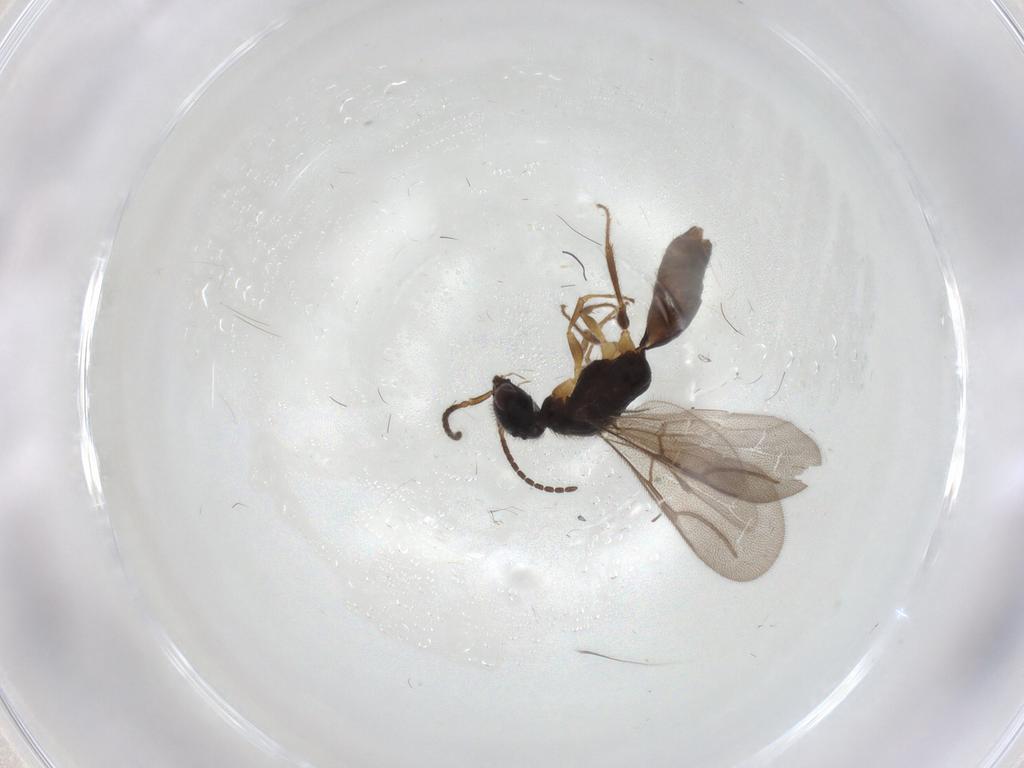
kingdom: Animalia
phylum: Arthropoda
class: Insecta
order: Hymenoptera
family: Bethylidae
